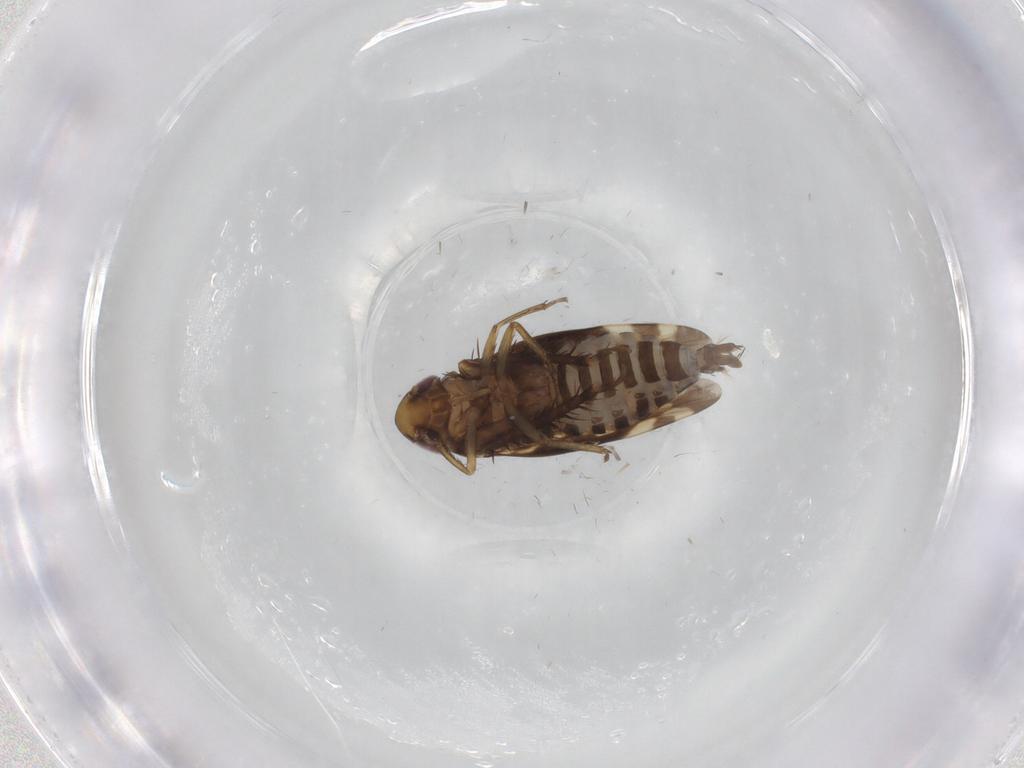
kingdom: Animalia
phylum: Arthropoda
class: Insecta
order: Hemiptera
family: Cicadellidae
